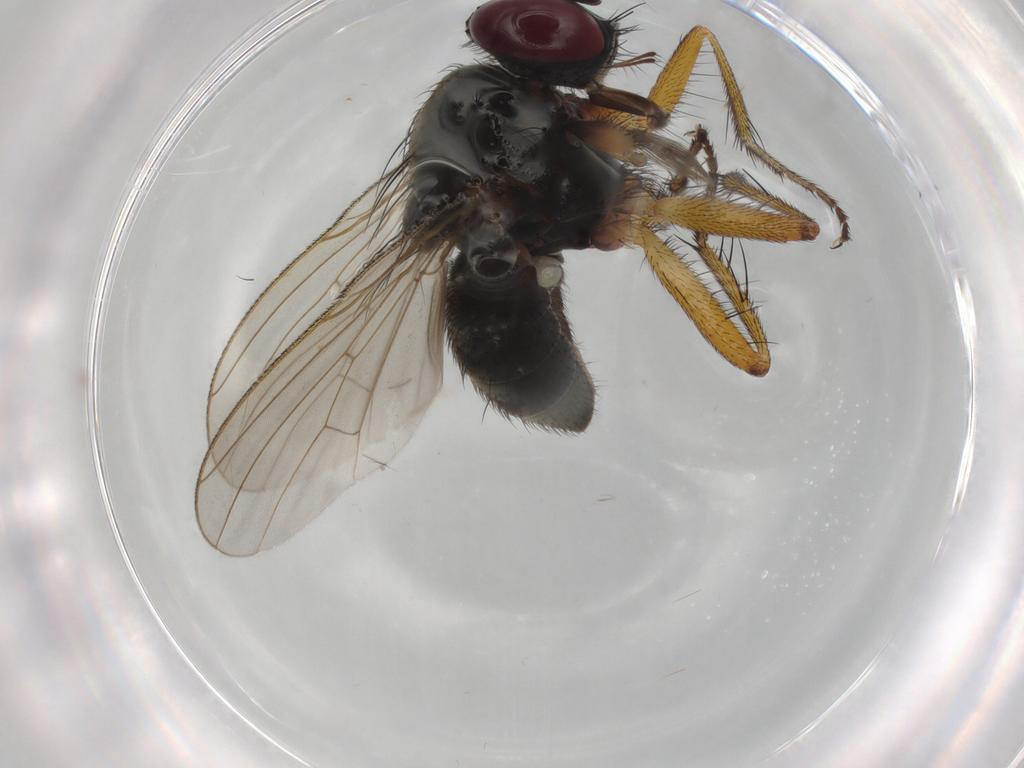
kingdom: Animalia
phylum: Arthropoda
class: Insecta
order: Diptera
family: Muscidae
